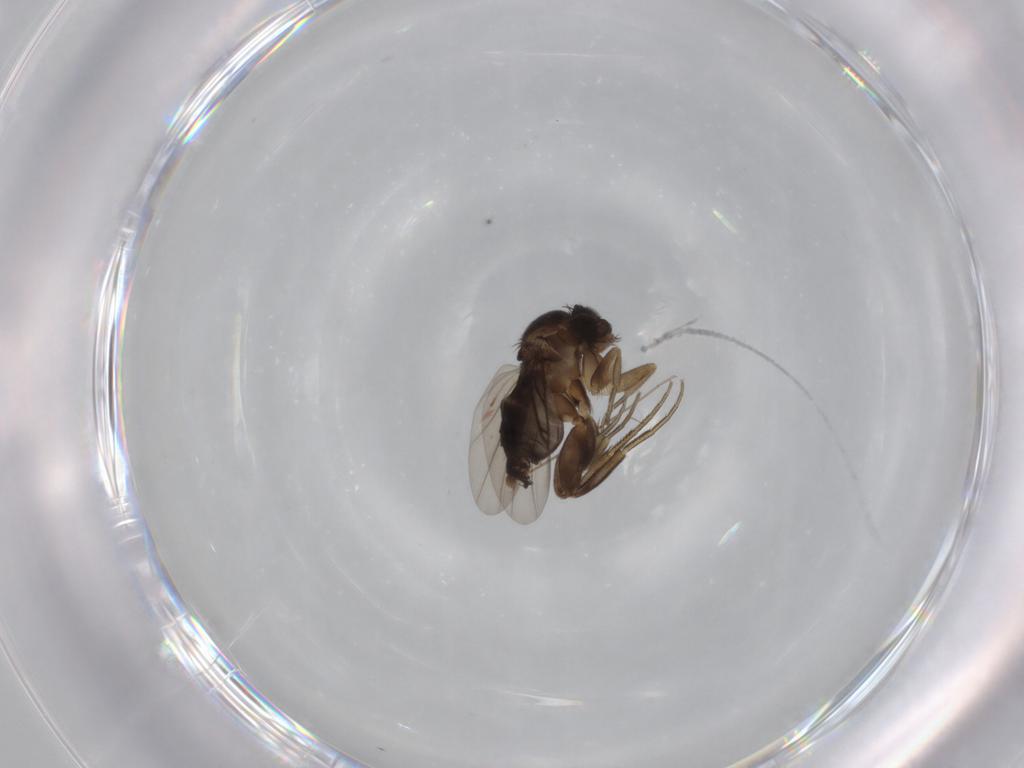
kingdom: Animalia
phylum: Arthropoda
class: Insecta
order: Diptera
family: Phoridae
